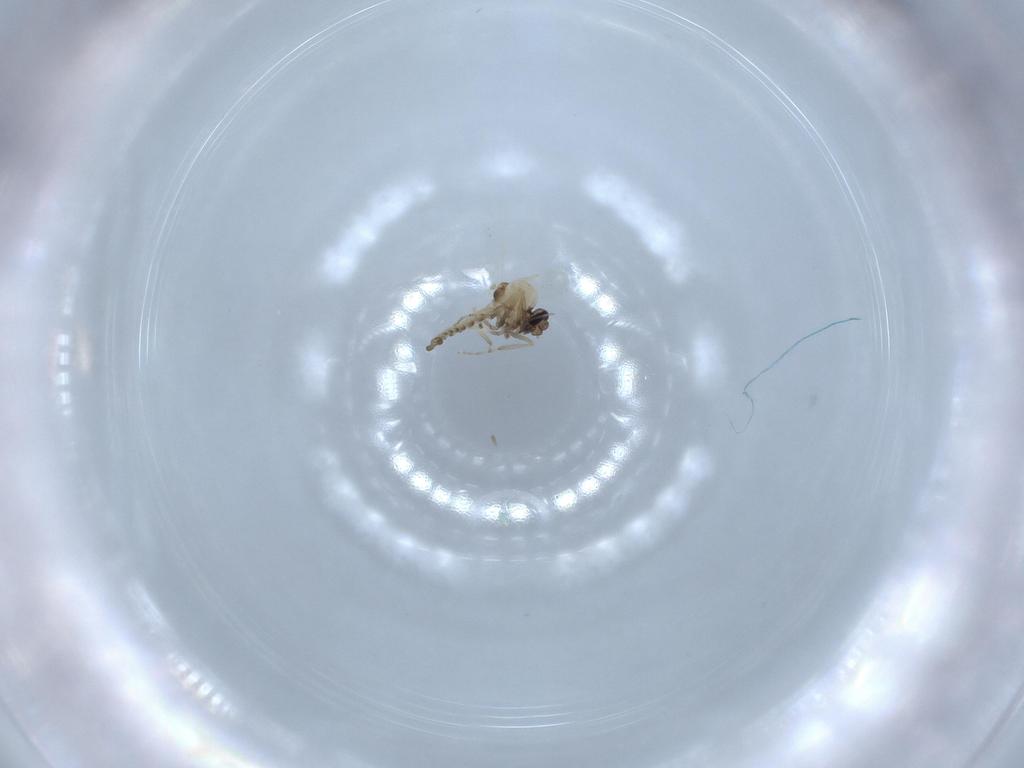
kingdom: Animalia
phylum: Arthropoda
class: Insecta
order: Diptera
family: Ceratopogonidae
